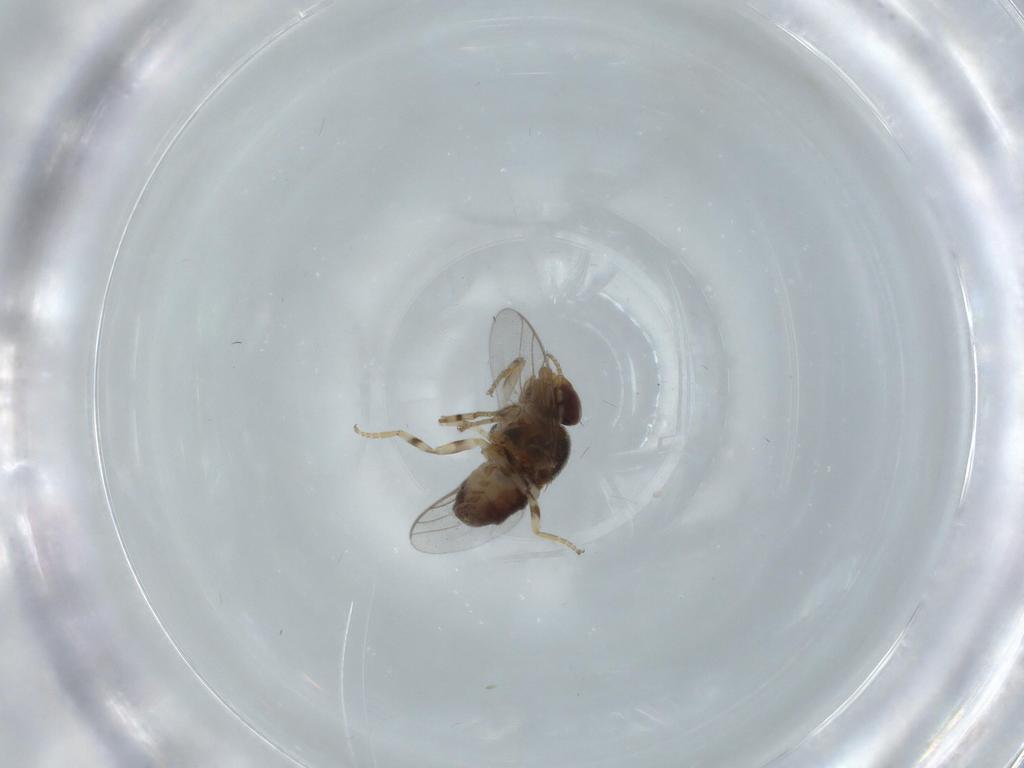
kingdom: Animalia
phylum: Arthropoda
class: Insecta
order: Diptera
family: Chloropidae
